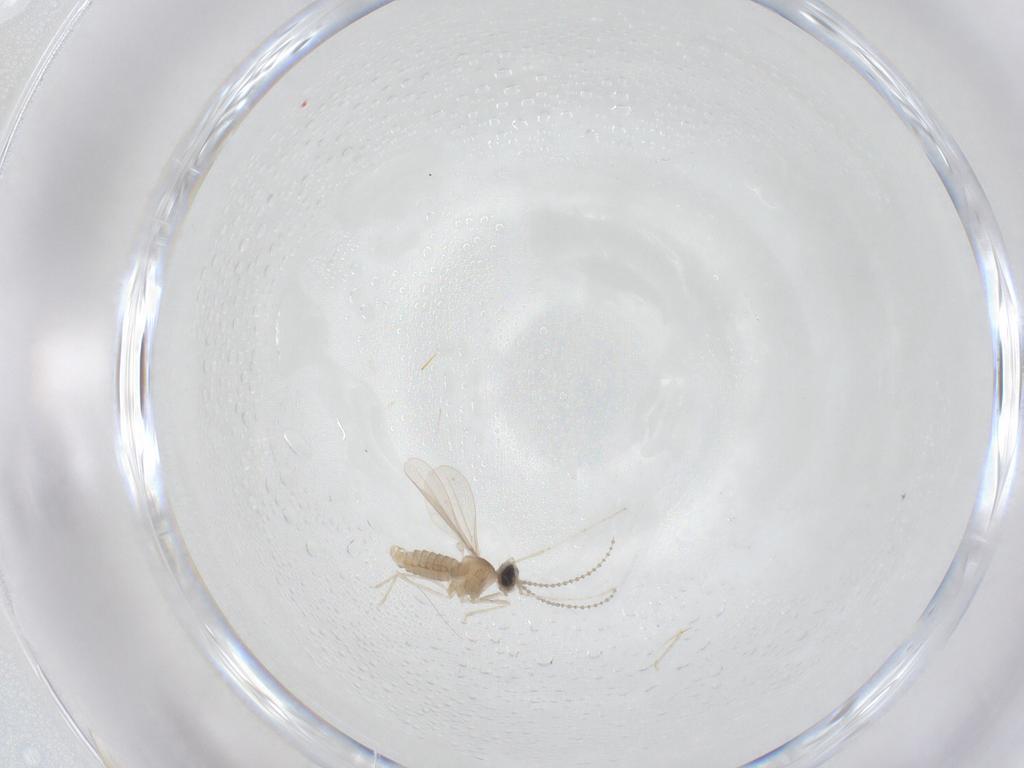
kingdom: Animalia
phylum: Arthropoda
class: Insecta
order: Diptera
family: Cecidomyiidae
